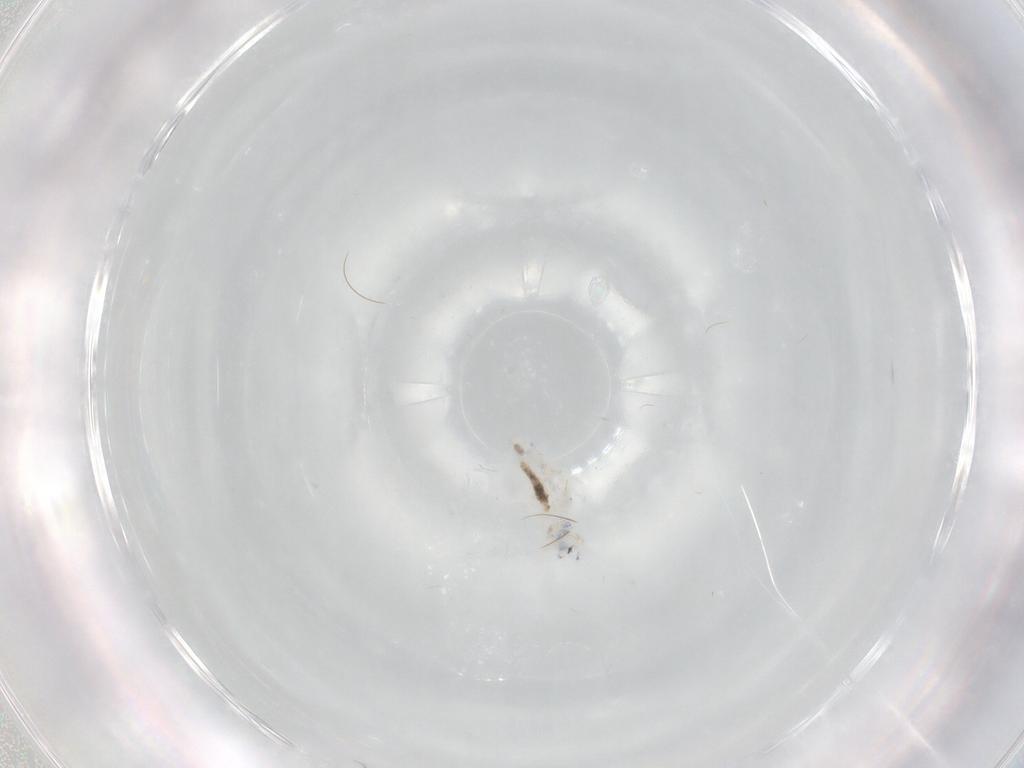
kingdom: Animalia
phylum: Arthropoda
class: Collembola
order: Entomobryomorpha
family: Entomobryidae
